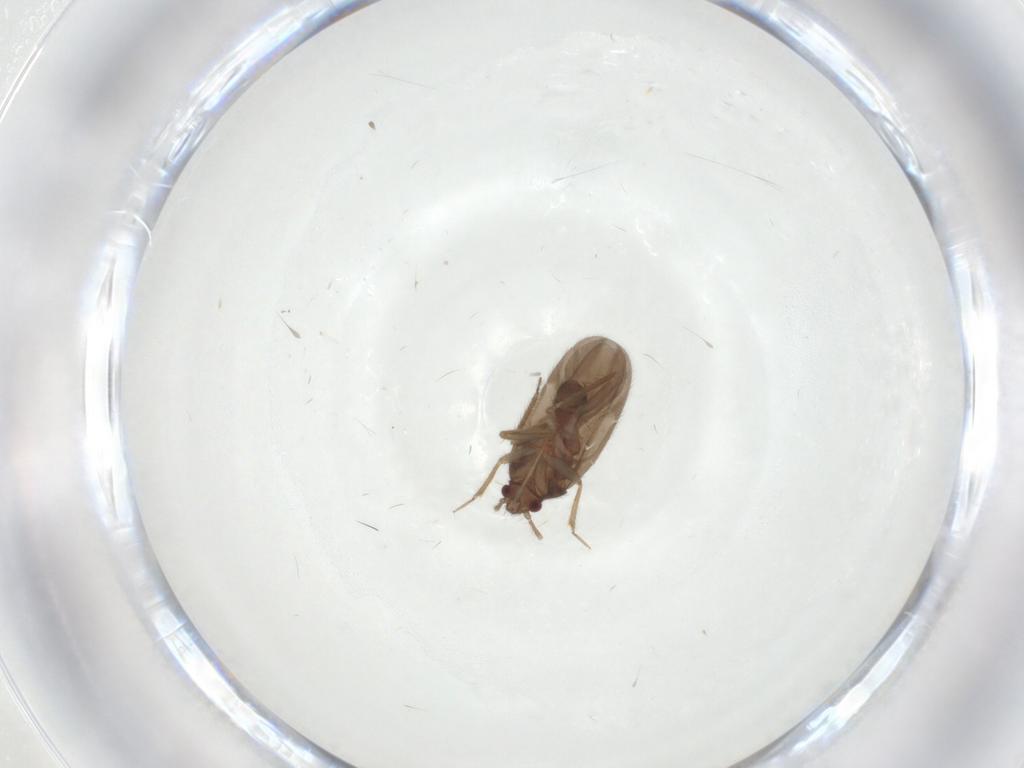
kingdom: Animalia
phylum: Arthropoda
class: Insecta
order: Hemiptera
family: Ceratocombidae
